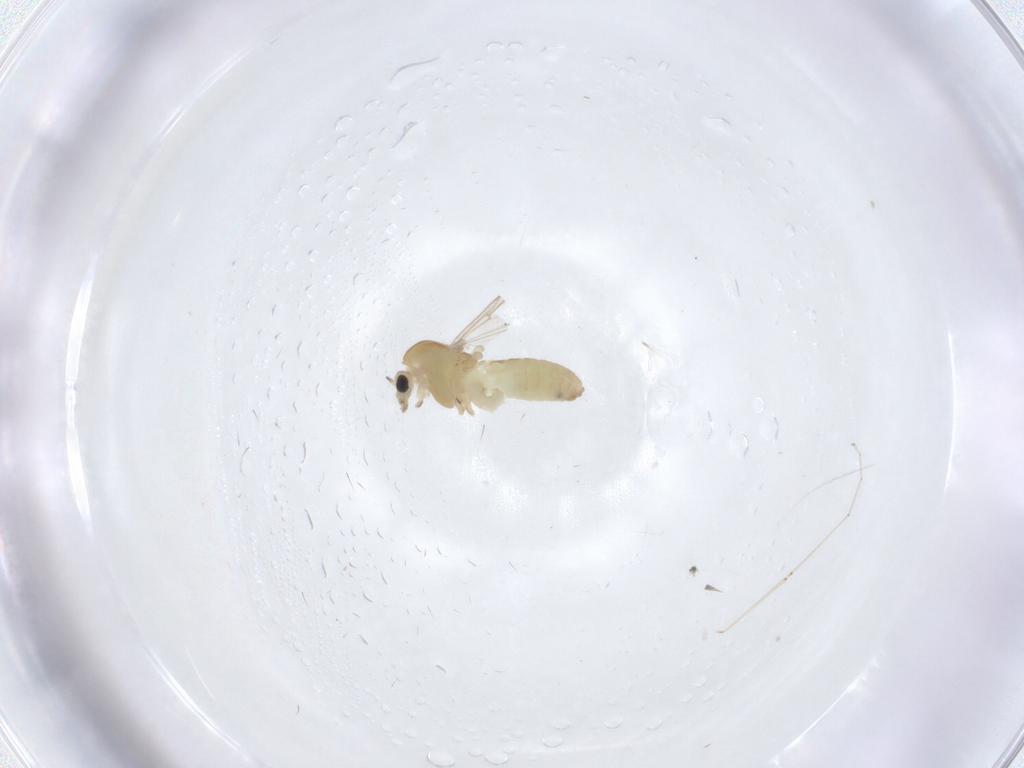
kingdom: Animalia
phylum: Arthropoda
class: Insecta
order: Diptera
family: Chironomidae
